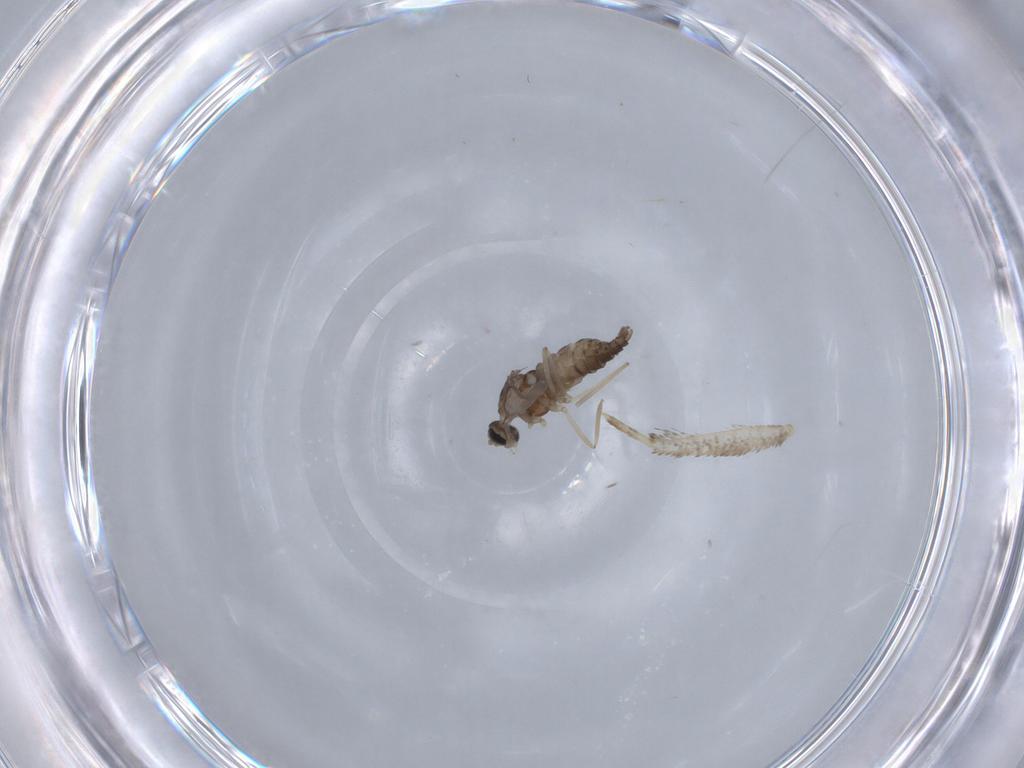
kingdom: Animalia
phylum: Arthropoda
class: Insecta
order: Diptera
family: Cecidomyiidae
